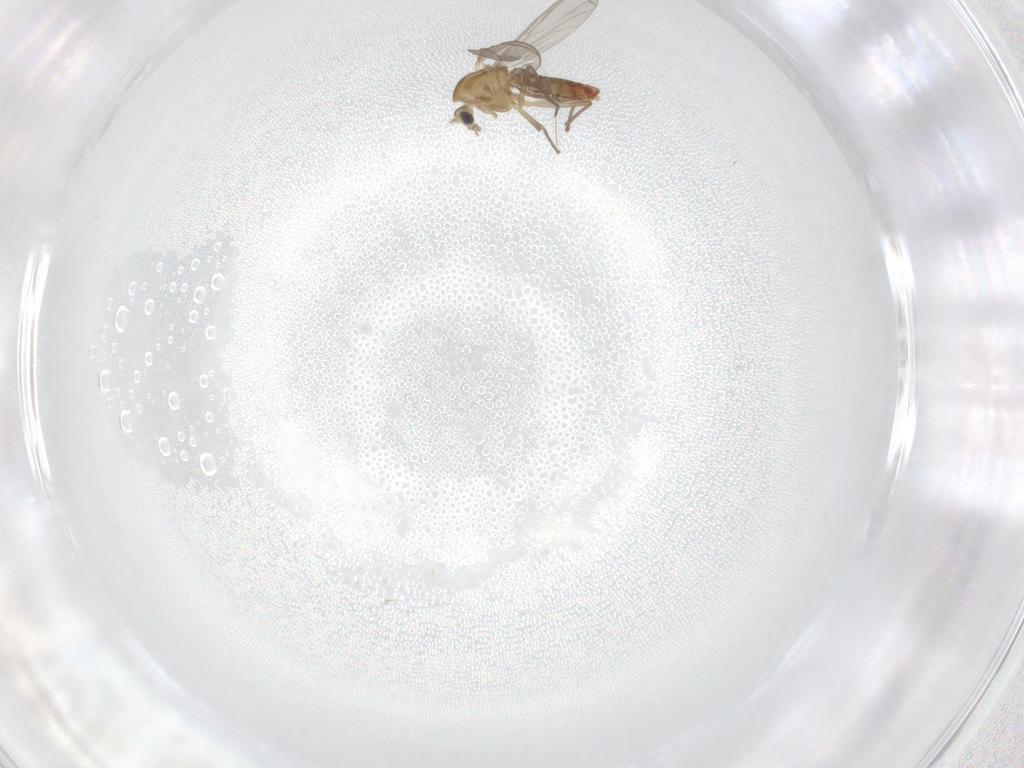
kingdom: Animalia
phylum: Arthropoda
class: Insecta
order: Diptera
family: Chironomidae
